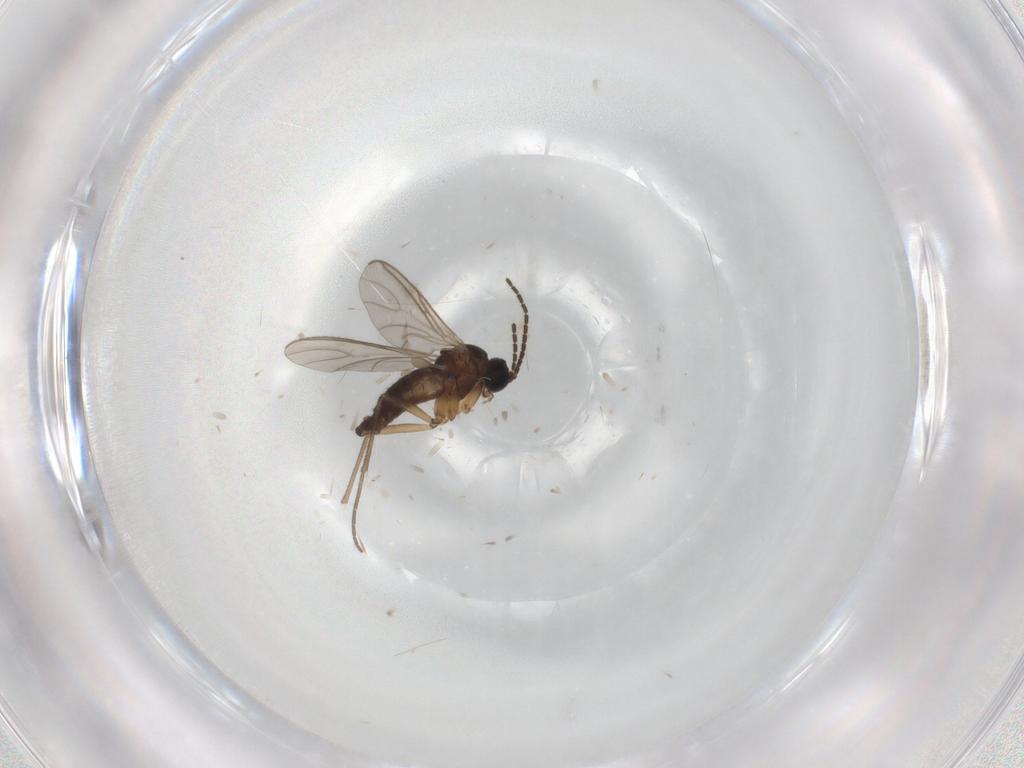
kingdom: Animalia
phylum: Arthropoda
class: Insecta
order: Diptera
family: Sciaridae
